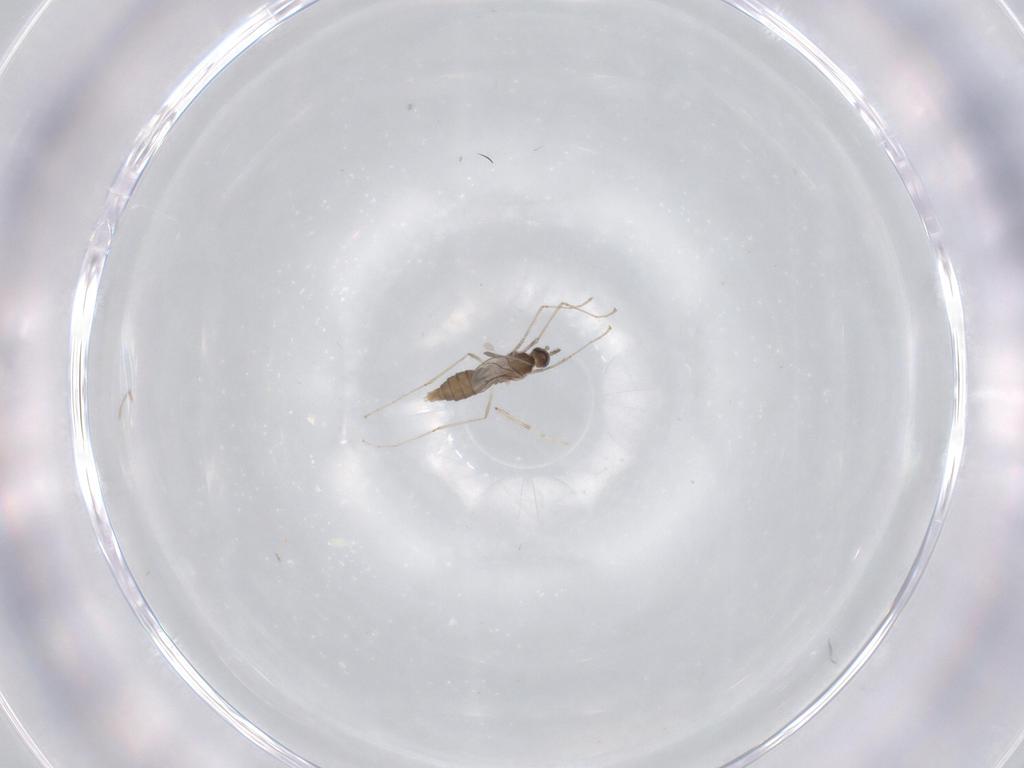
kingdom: Animalia
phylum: Arthropoda
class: Insecta
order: Diptera
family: Chironomidae
